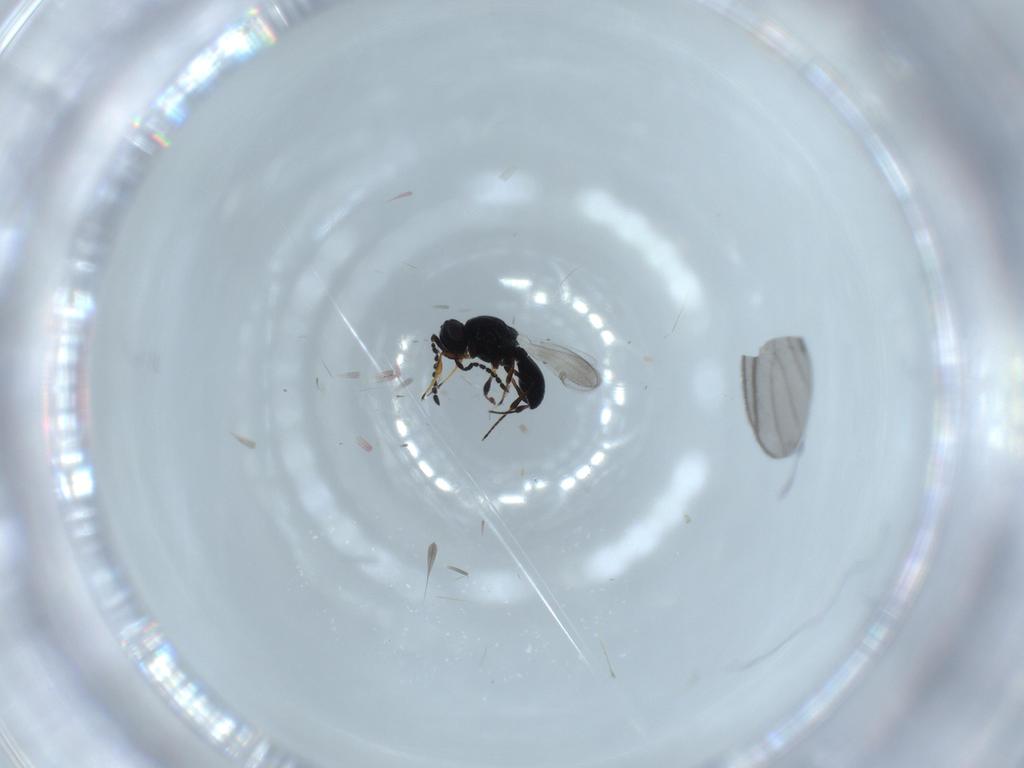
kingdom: Animalia
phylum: Arthropoda
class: Insecta
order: Hymenoptera
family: Platygastridae
